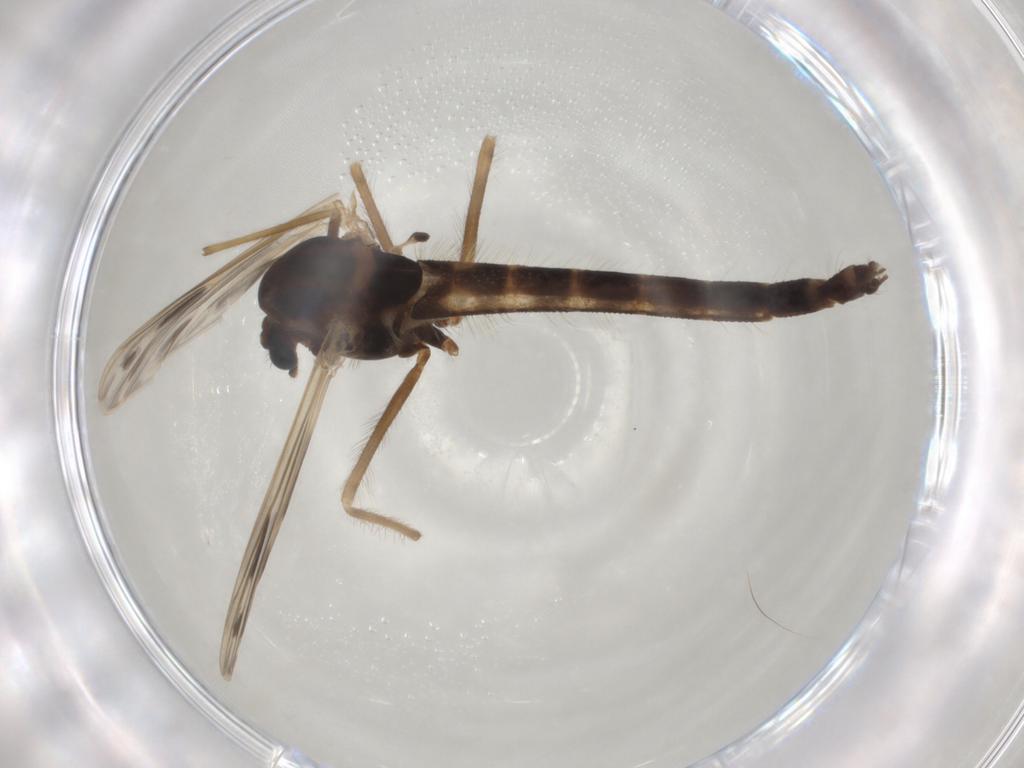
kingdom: Animalia
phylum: Arthropoda
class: Insecta
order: Diptera
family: Chironomidae
